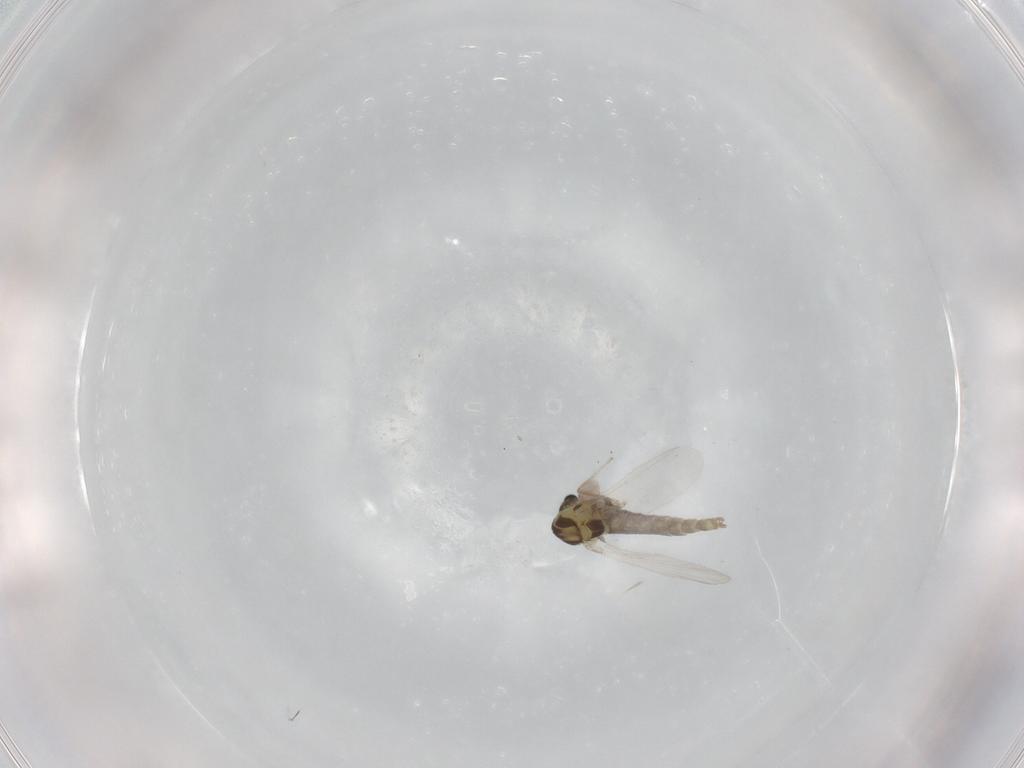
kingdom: Animalia
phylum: Arthropoda
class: Insecta
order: Diptera
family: Chironomidae
